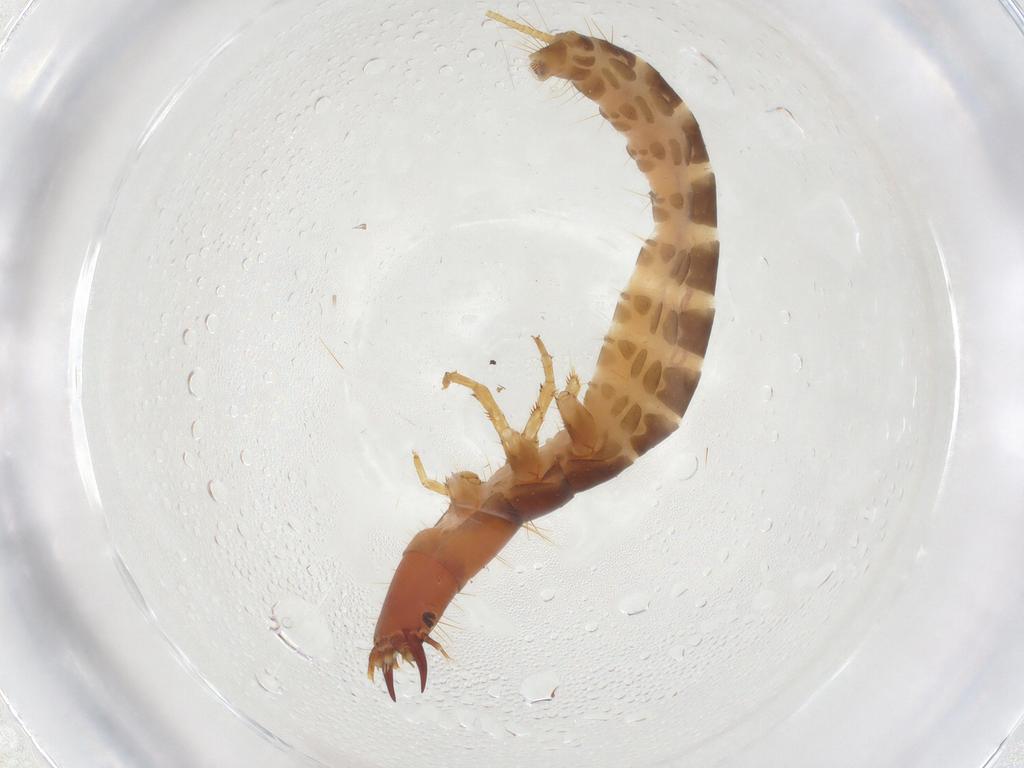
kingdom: Animalia
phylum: Arthropoda
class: Insecta
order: Coleoptera
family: Carabidae
